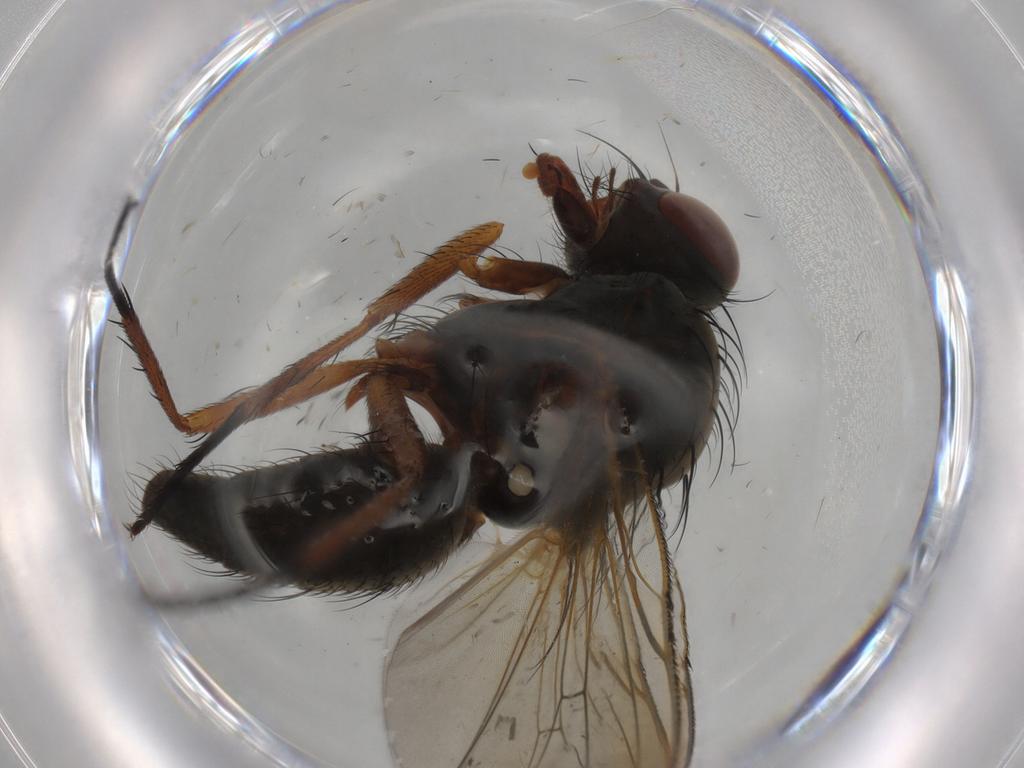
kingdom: Animalia
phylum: Arthropoda
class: Insecta
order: Diptera
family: Anthomyiidae
